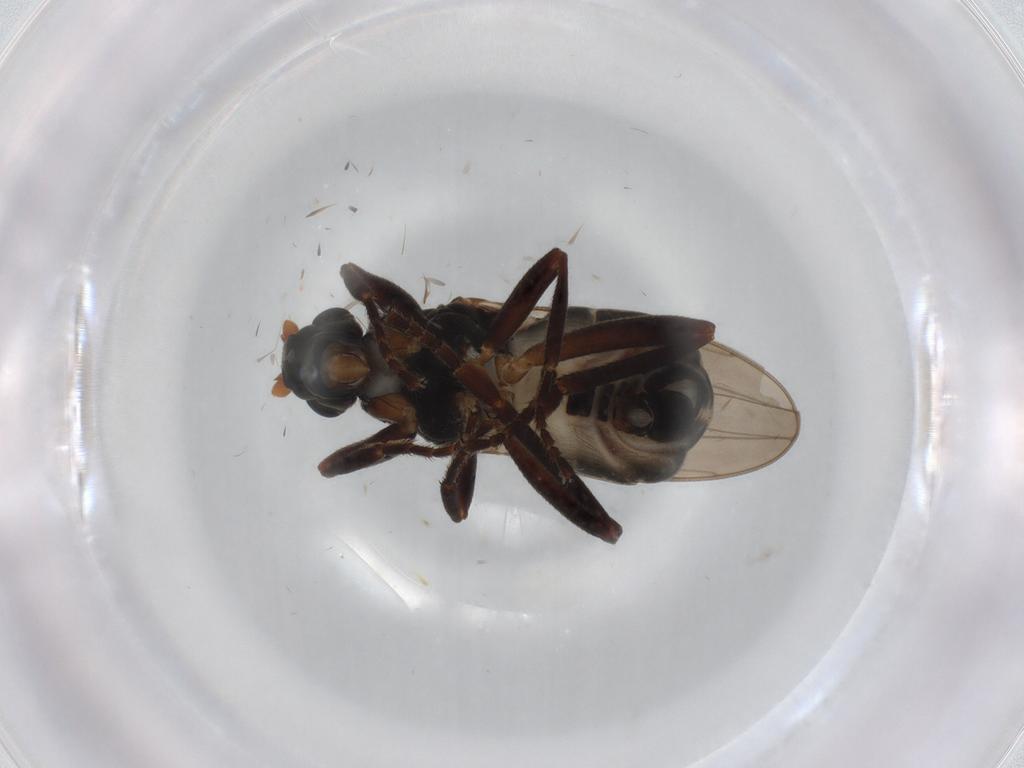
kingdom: Animalia
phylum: Arthropoda
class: Insecta
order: Diptera
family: Sphaeroceridae
